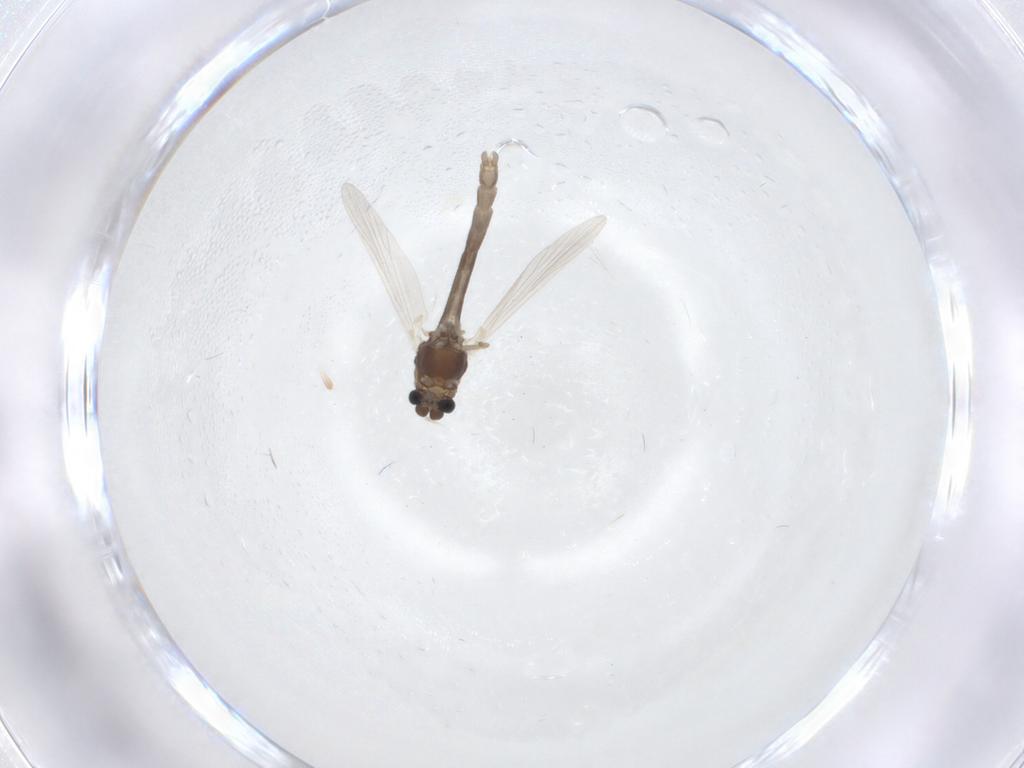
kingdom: Animalia
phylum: Arthropoda
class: Insecta
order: Diptera
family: Chironomidae
